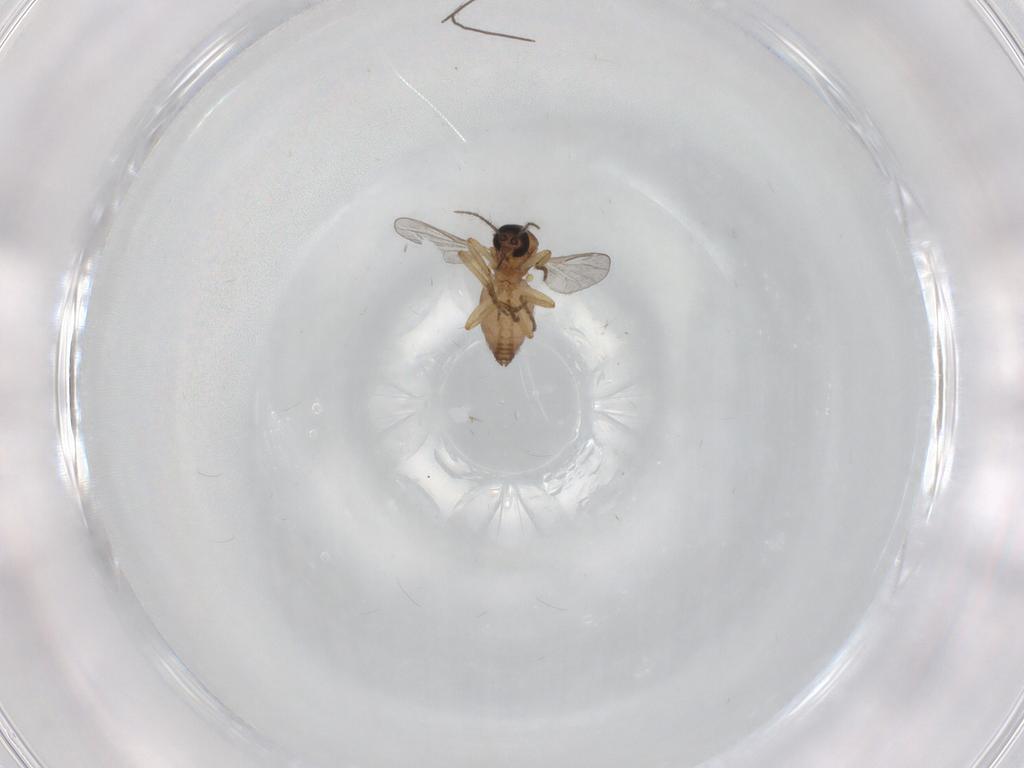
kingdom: Animalia
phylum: Arthropoda
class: Insecta
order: Diptera
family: Chironomidae
